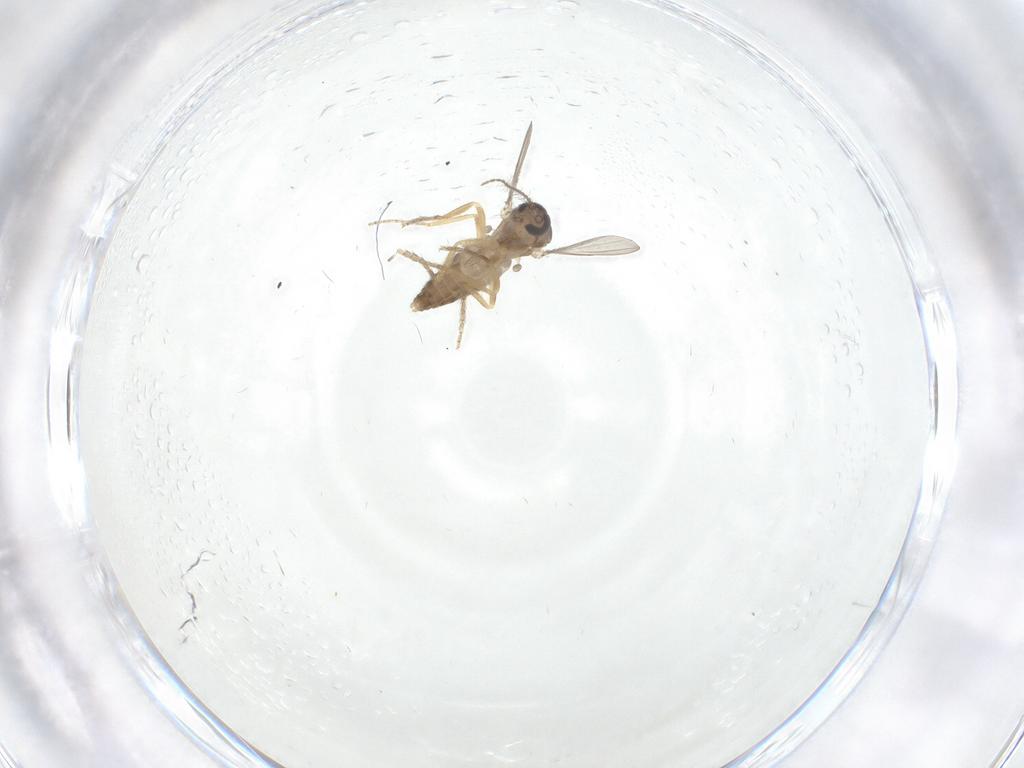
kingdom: Animalia
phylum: Arthropoda
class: Insecta
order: Diptera
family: Ceratopogonidae
